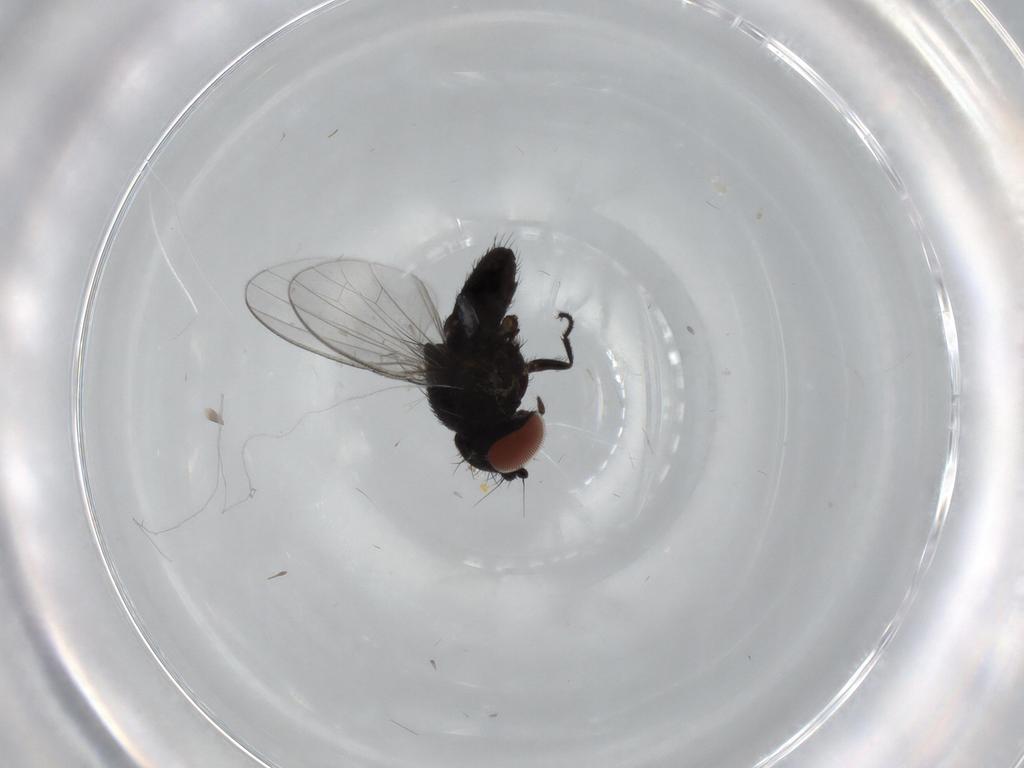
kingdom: Animalia
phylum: Arthropoda
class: Insecta
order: Diptera
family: Milichiidae
